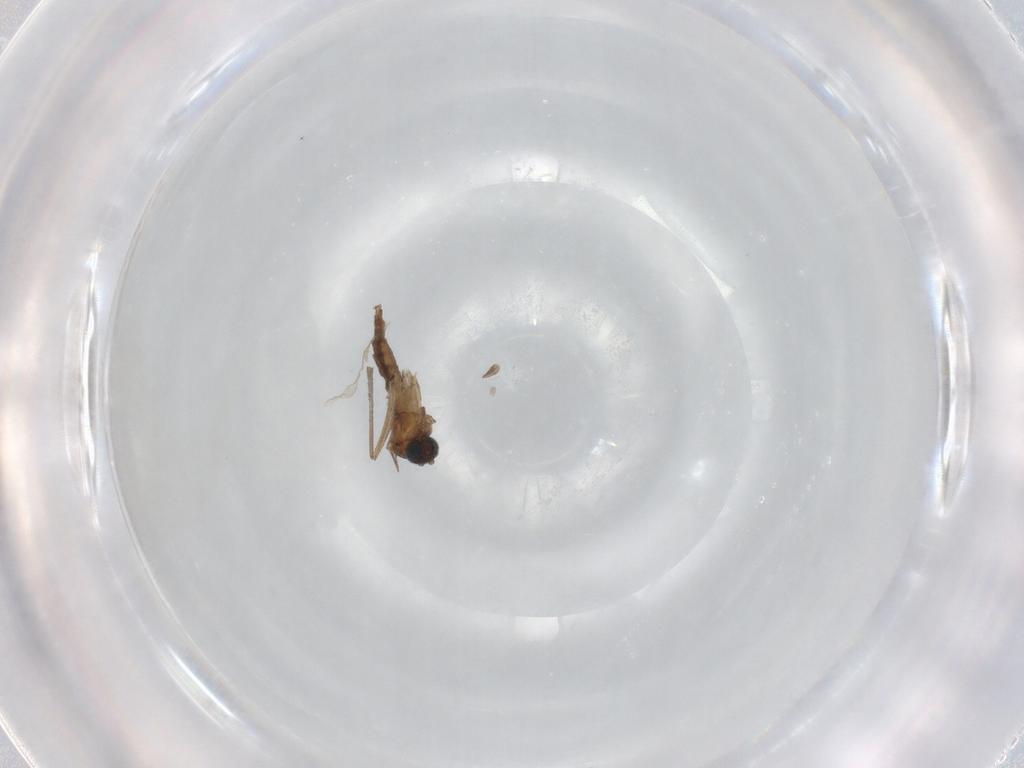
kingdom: Animalia
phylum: Arthropoda
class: Insecta
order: Diptera
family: Sciaridae
